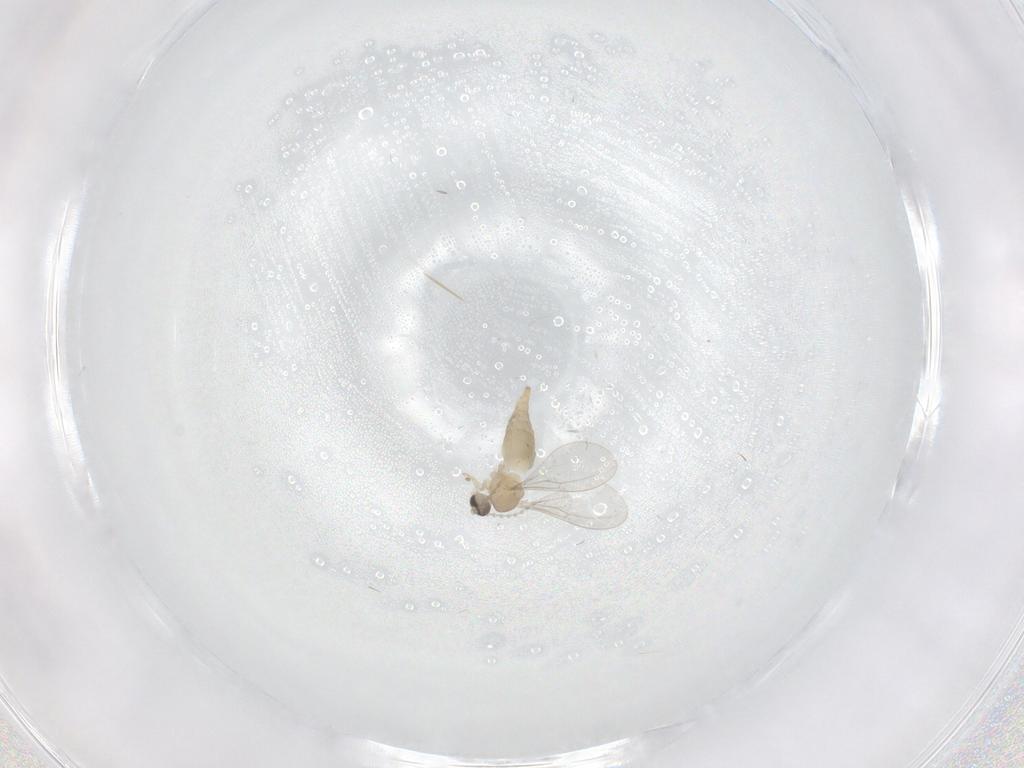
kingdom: Animalia
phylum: Arthropoda
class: Insecta
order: Diptera
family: Cecidomyiidae
